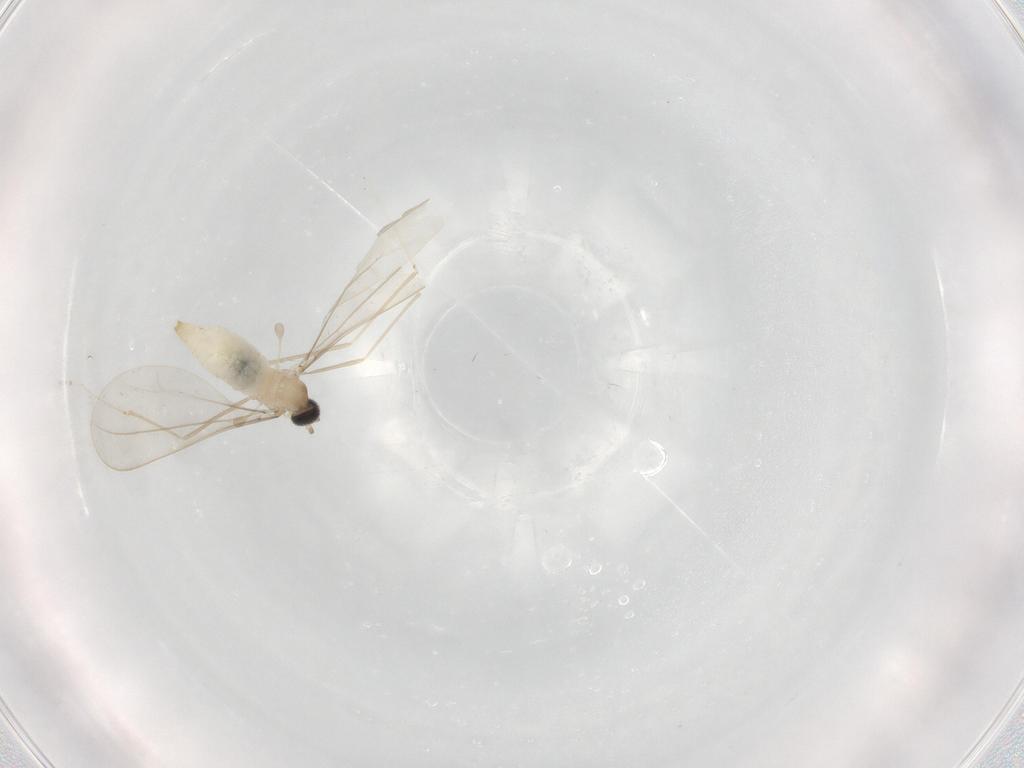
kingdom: Animalia
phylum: Arthropoda
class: Insecta
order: Diptera
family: Cecidomyiidae
